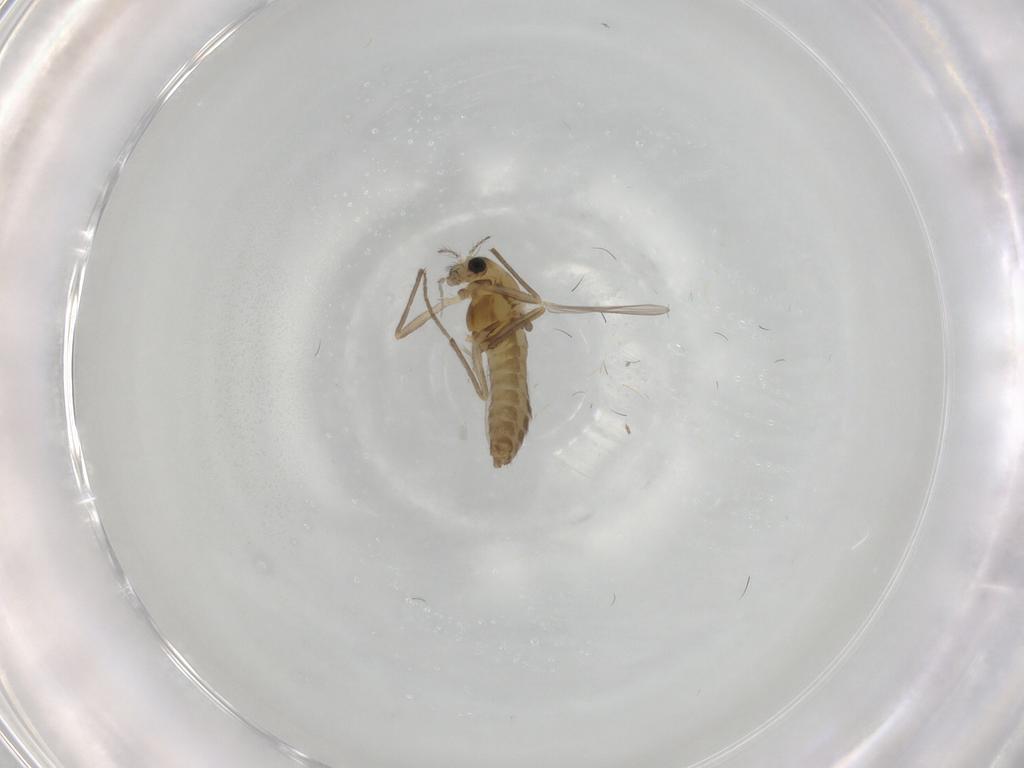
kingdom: Animalia
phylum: Arthropoda
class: Insecta
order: Diptera
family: Chironomidae
